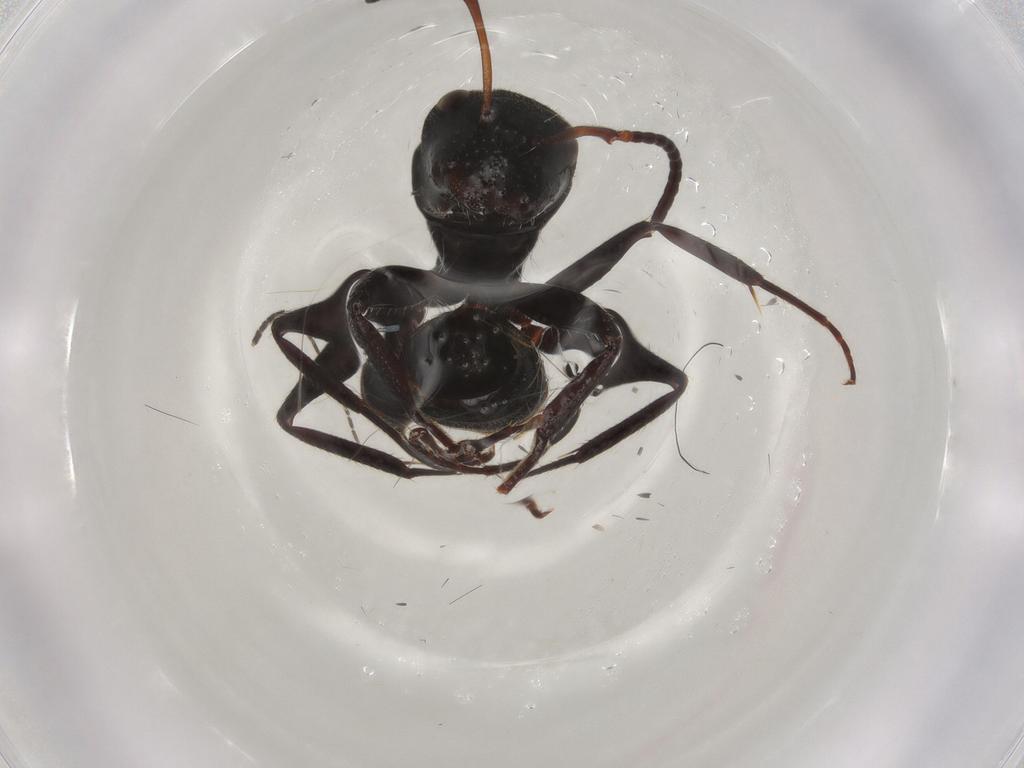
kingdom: Animalia
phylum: Arthropoda
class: Insecta
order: Hymenoptera
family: Formicidae
